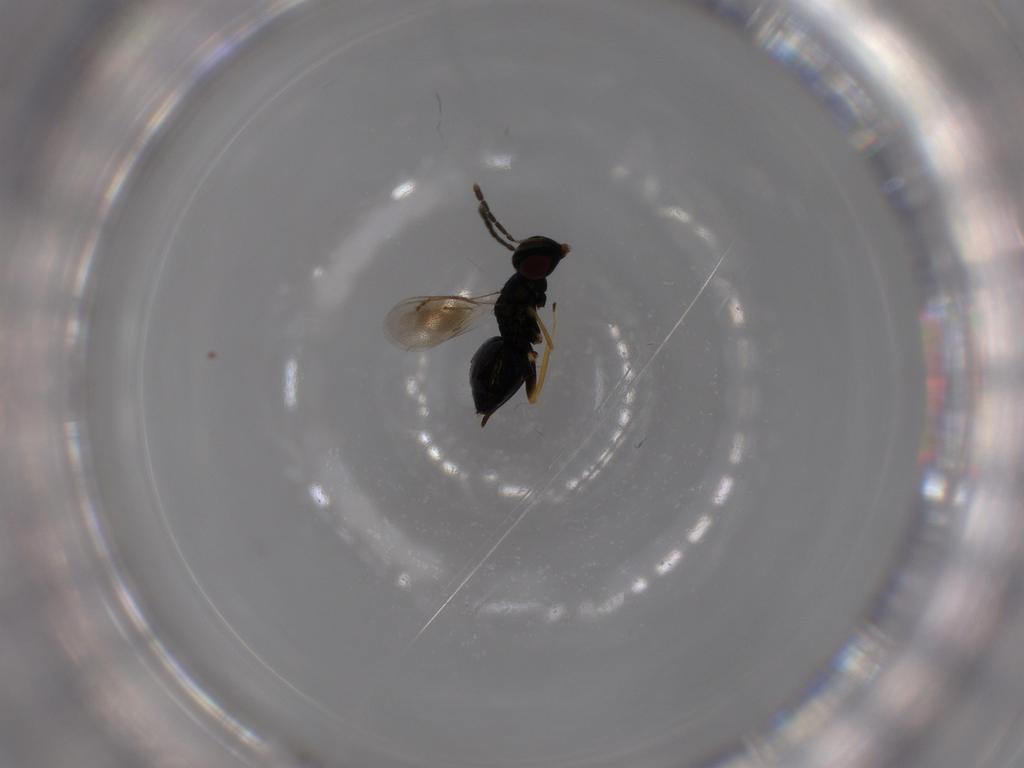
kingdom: Animalia
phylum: Arthropoda
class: Insecta
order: Hymenoptera
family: Eulophidae
